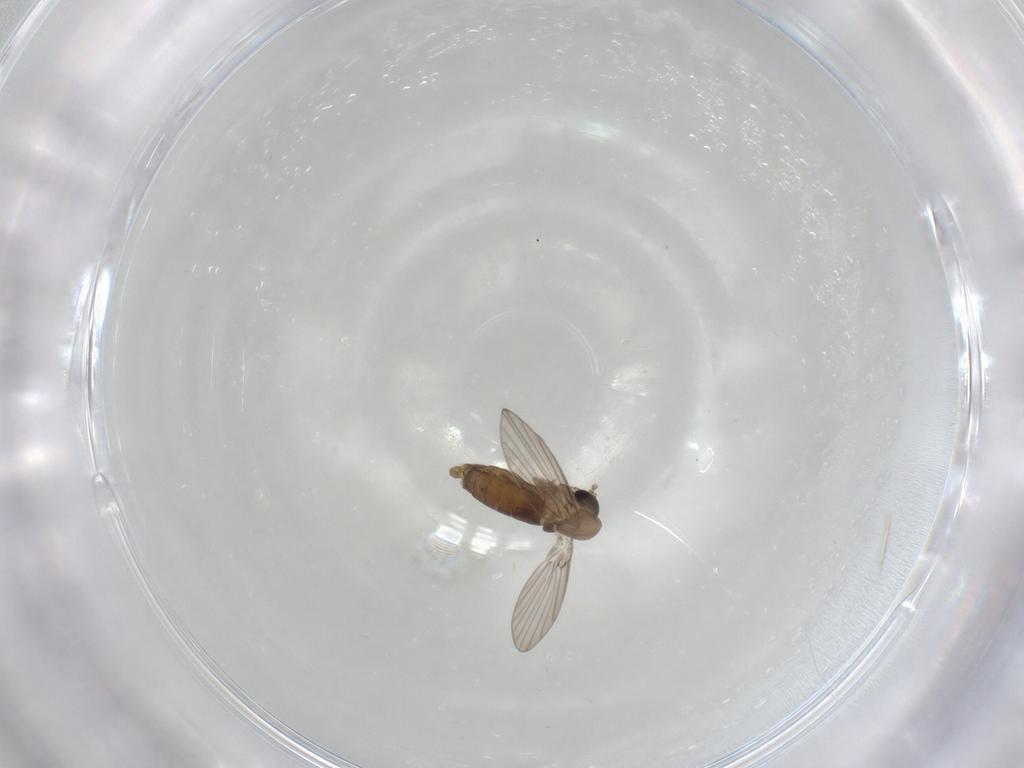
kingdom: Animalia
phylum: Arthropoda
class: Insecta
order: Diptera
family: Psychodidae
